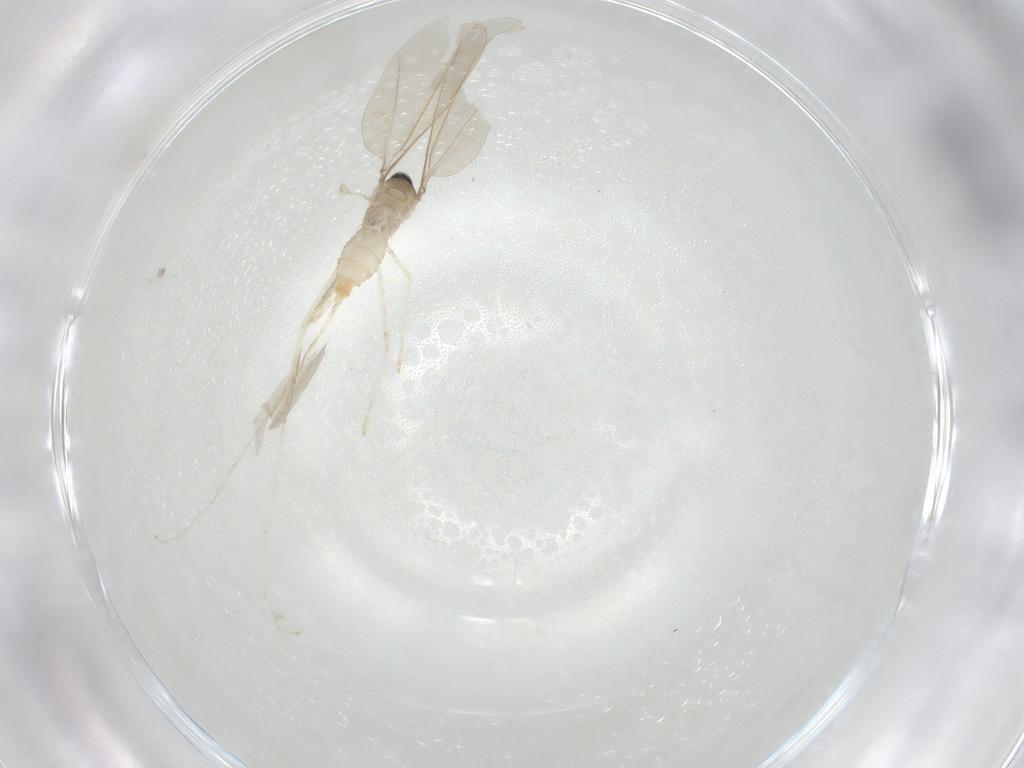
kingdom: Animalia
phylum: Arthropoda
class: Insecta
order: Diptera
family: Cecidomyiidae
